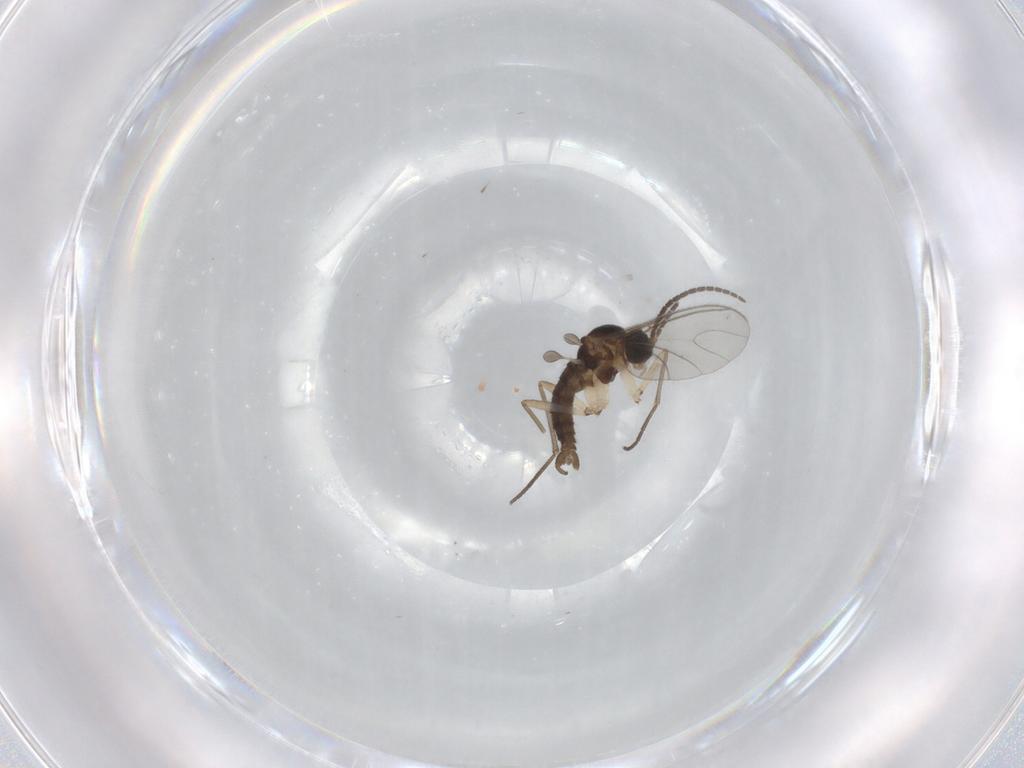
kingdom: Animalia
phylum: Arthropoda
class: Insecta
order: Diptera
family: Sciaridae
